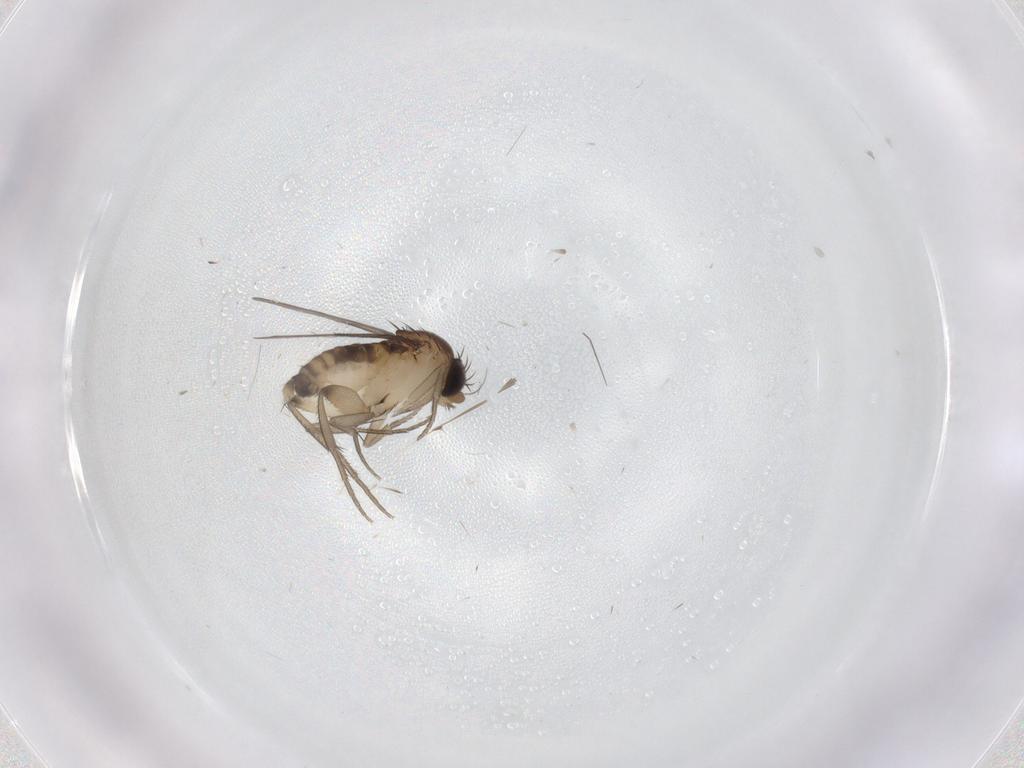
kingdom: Animalia
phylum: Arthropoda
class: Insecta
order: Diptera
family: Phoridae
